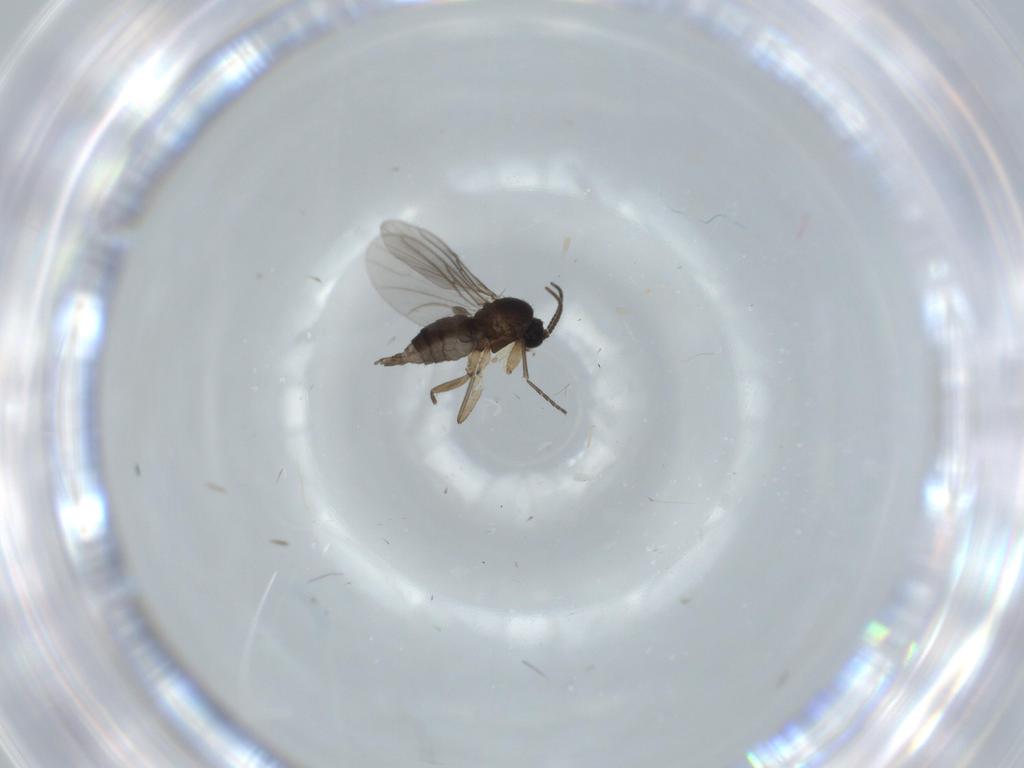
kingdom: Animalia
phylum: Arthropoda
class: Insecta
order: Diptera
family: Sciaridae
